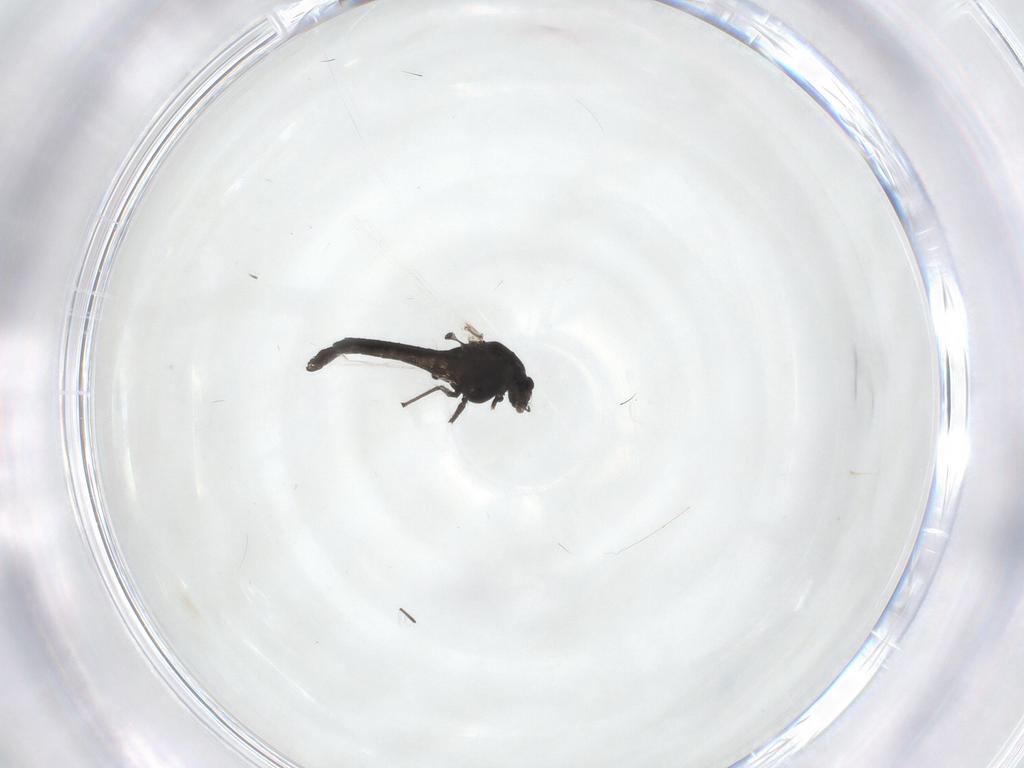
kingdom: Animalia
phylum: Arthropoda
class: Insecta
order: Diptera
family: Chironomidae
